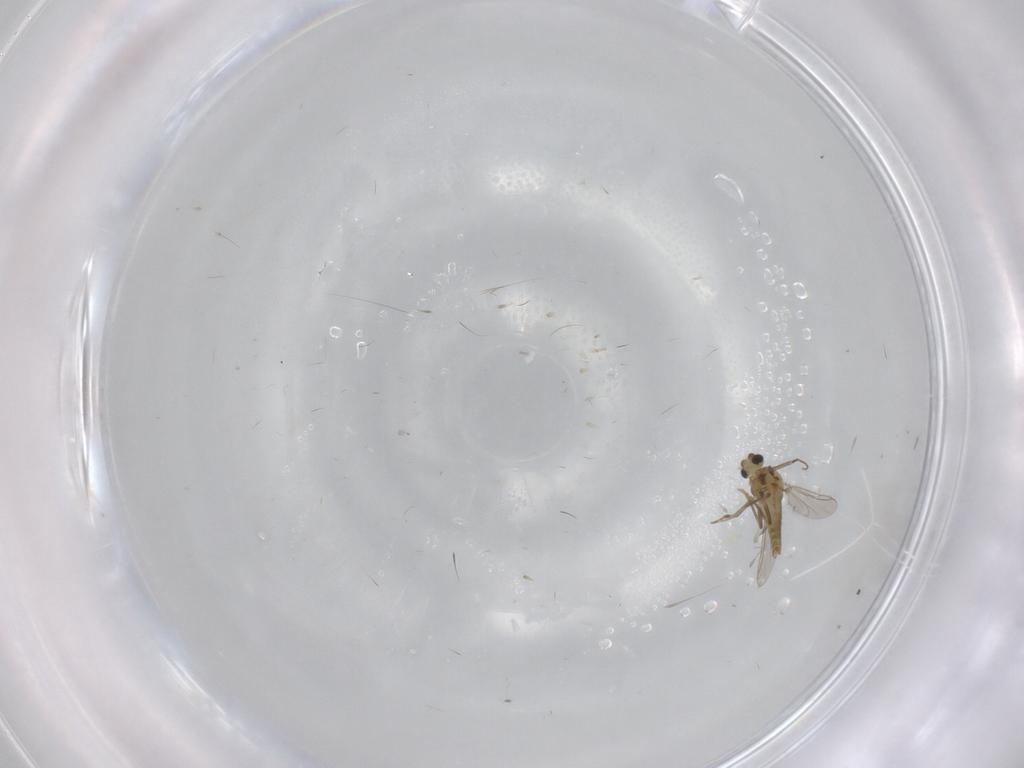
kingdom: Animalia
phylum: Arthropoda
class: Insecta
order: Diptera
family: Chironomidae
